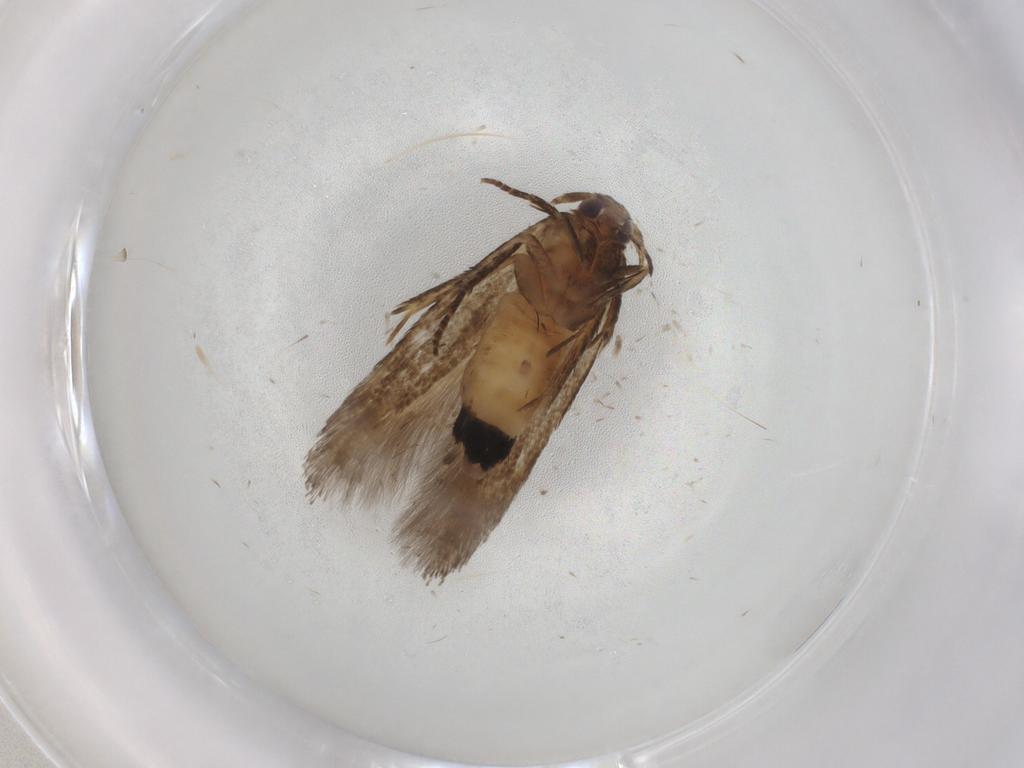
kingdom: Animalia
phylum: Arthropoda
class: Insecta
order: Lepidoptera
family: Cosmopterigidae
